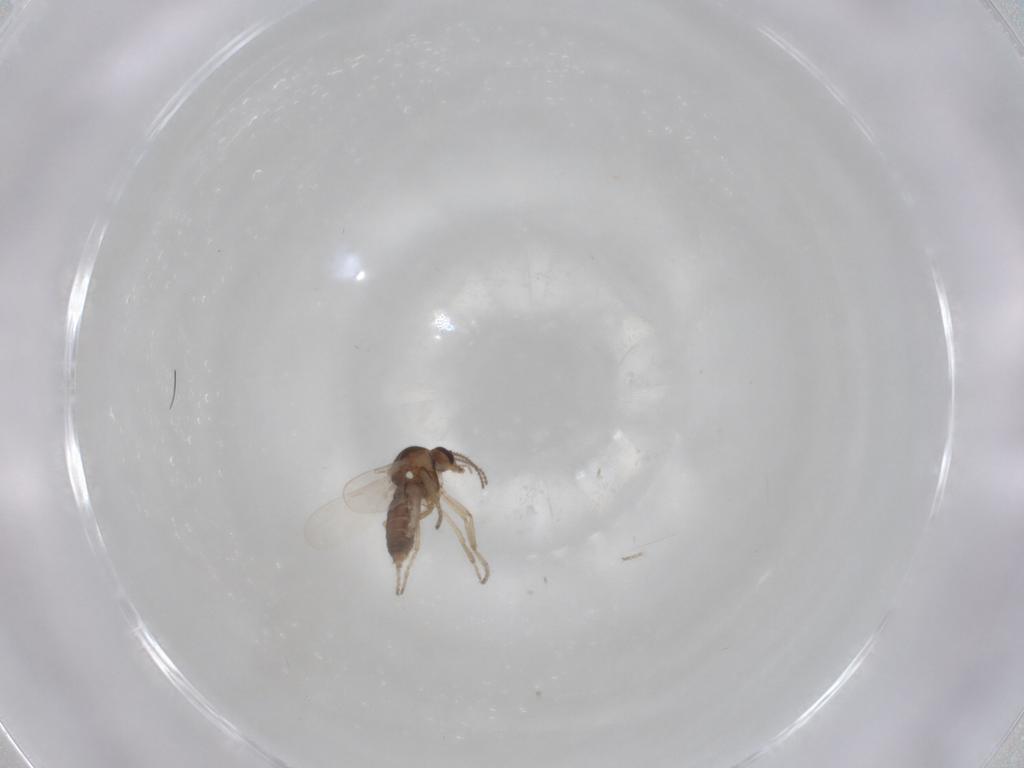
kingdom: Animalia
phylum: Arthropoda
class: Insecta
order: Diptera
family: Ceratopogonidae
